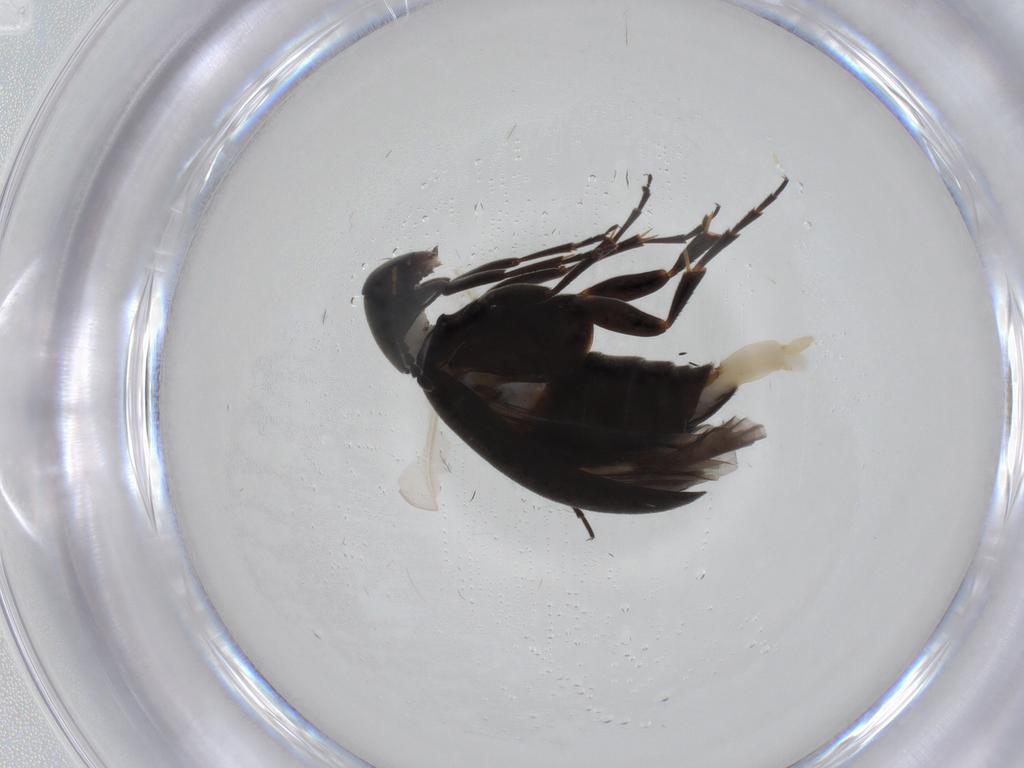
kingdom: Animalia
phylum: Arthropoda
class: Insecta
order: Coleoptera
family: Scraptiidae
